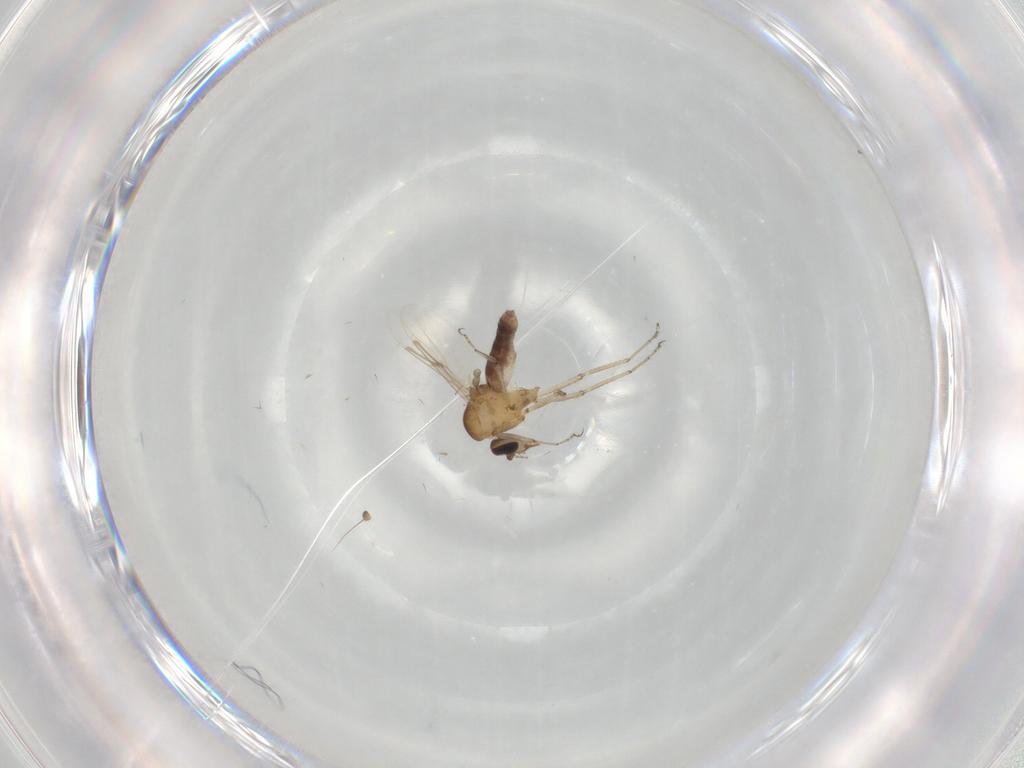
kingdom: Animalia
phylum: Arthropoda
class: Insecta
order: Diptera
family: Ceratopogonidae
